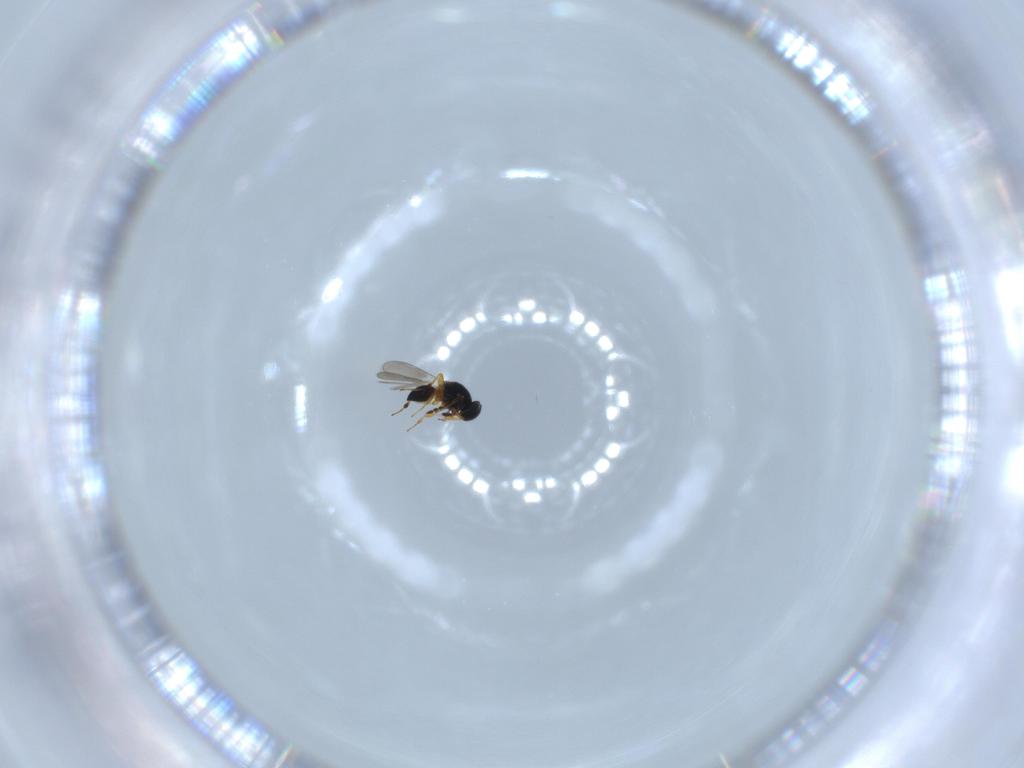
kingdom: Animalia
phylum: Arthropoda
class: Insecta
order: Hymenoptera
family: Platygastridae
